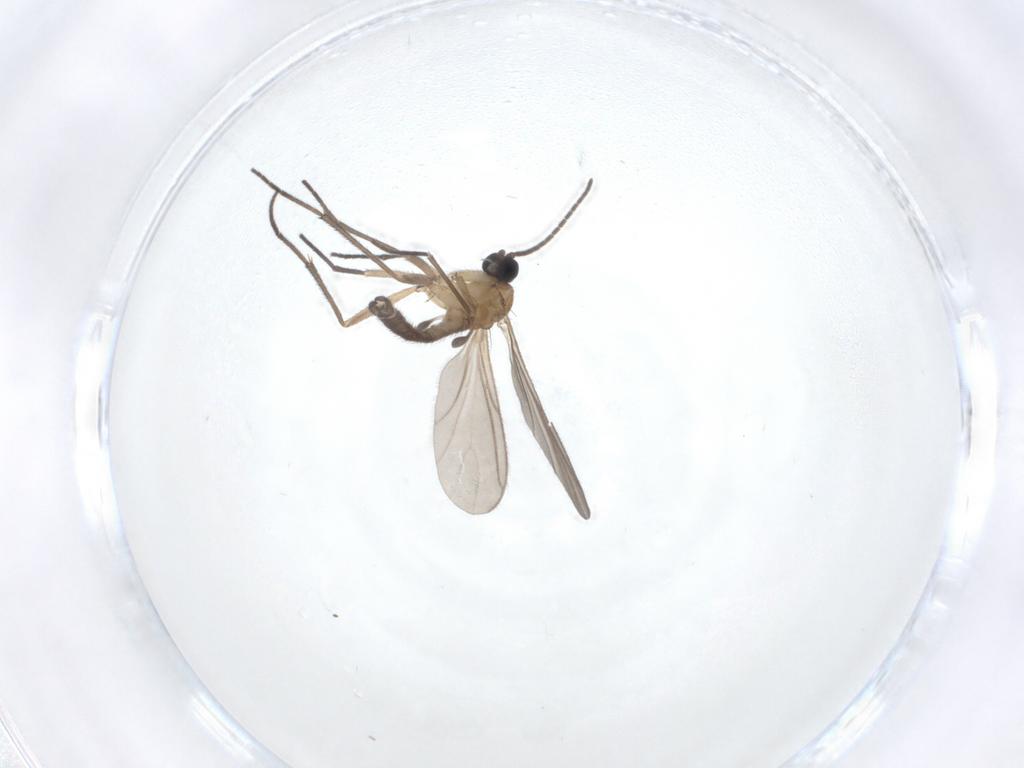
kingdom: Animalia
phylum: Arthropoda
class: Insecta
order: Diptera
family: Sciaridae
